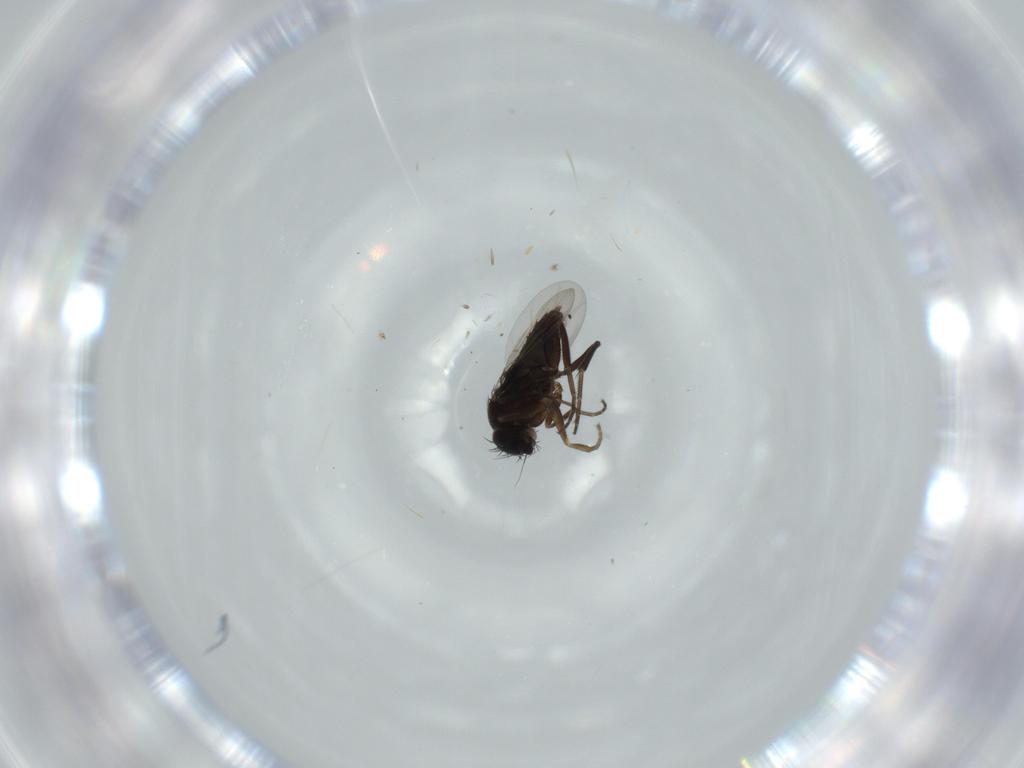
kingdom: Animalia
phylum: Arthropoda
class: Insecta
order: Diptera
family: Phoridae
